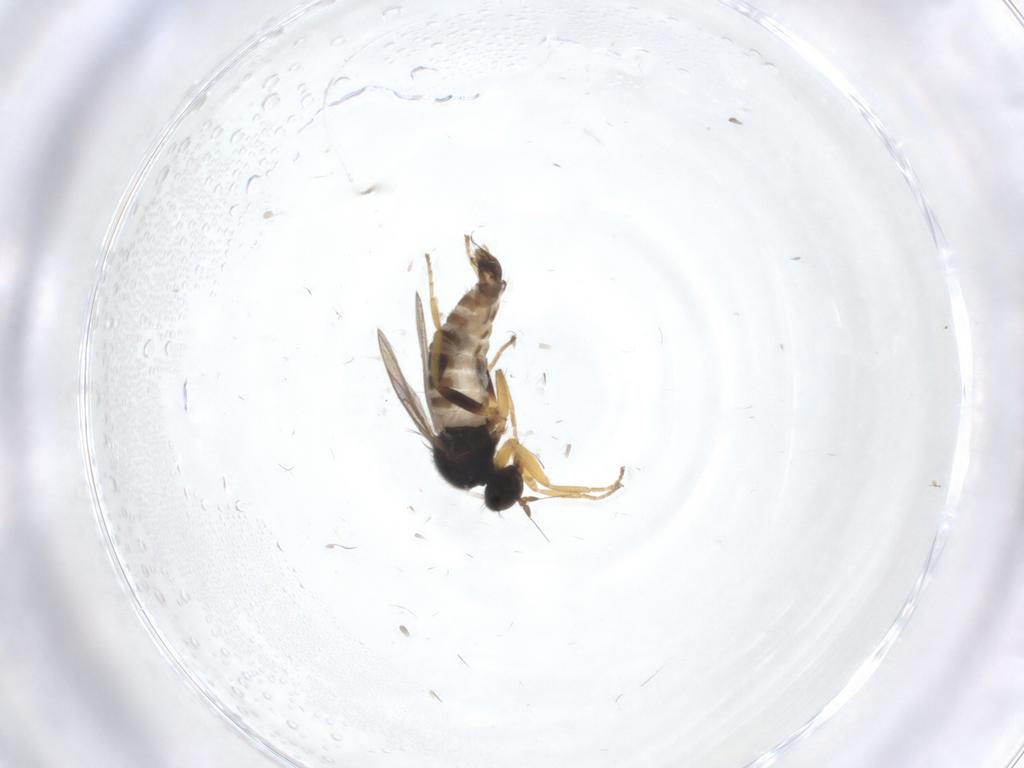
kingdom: Animalia
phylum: Arthropoda
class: Insecta
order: Diptera
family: Hybotidae
